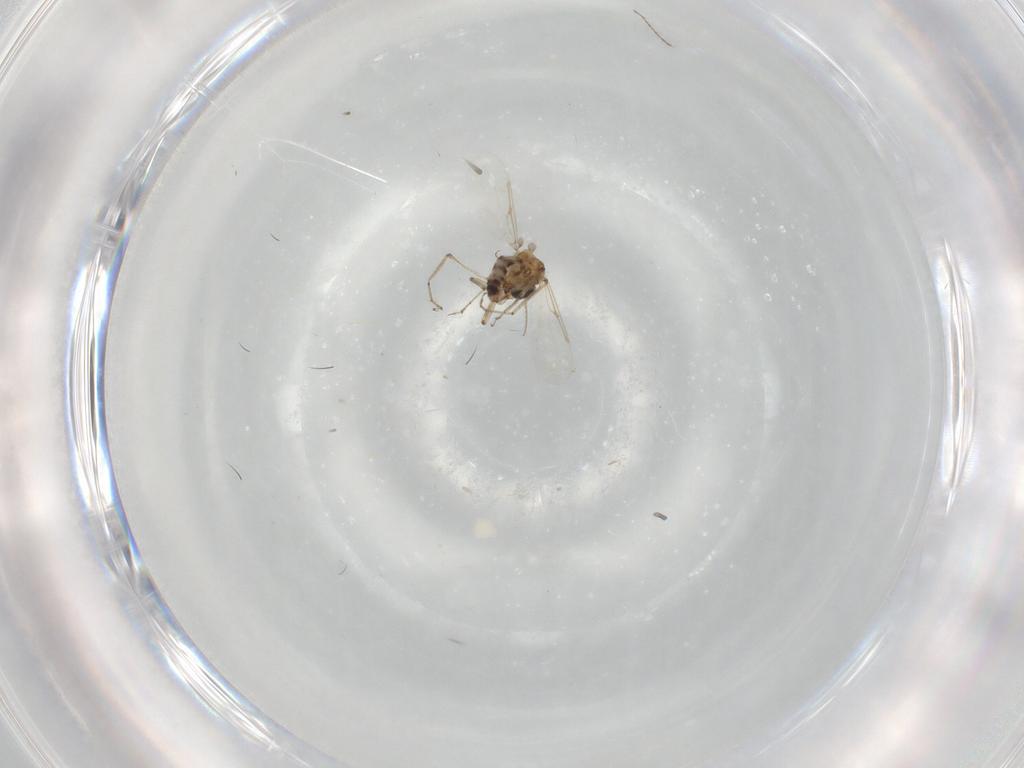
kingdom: Animalia
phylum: Arthropoda
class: Insecta
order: Diptera
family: Ceratopogonidae
